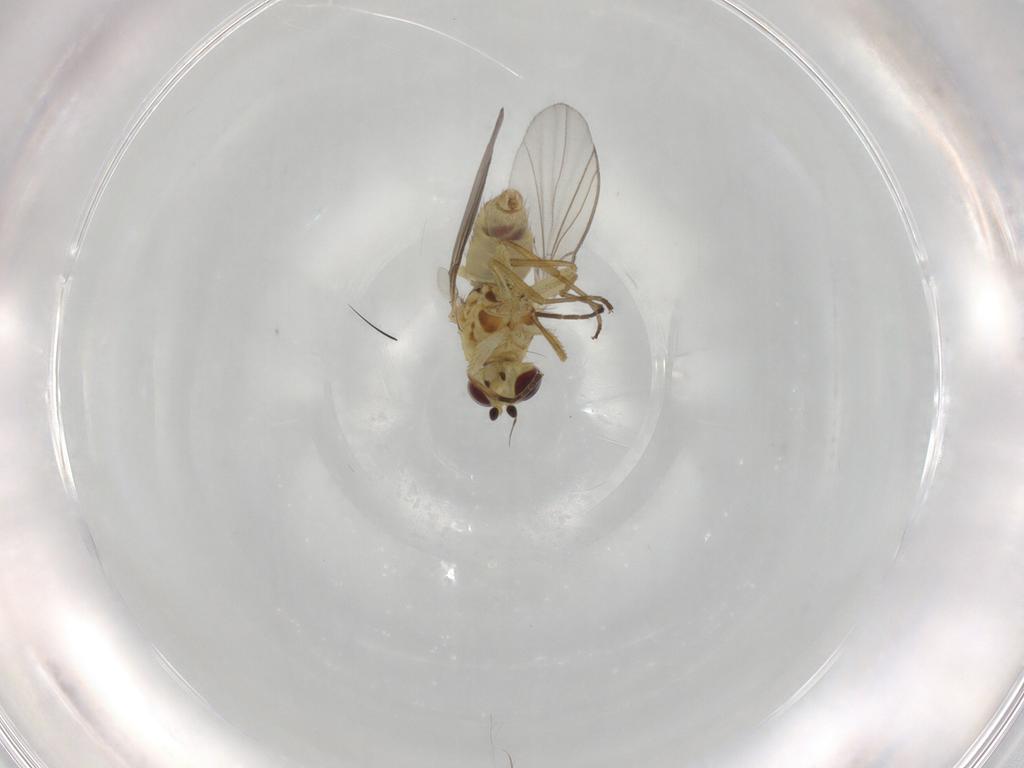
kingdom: Animalia
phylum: Arthropoda
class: Insecta
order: Diptera
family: Agromyzidae
